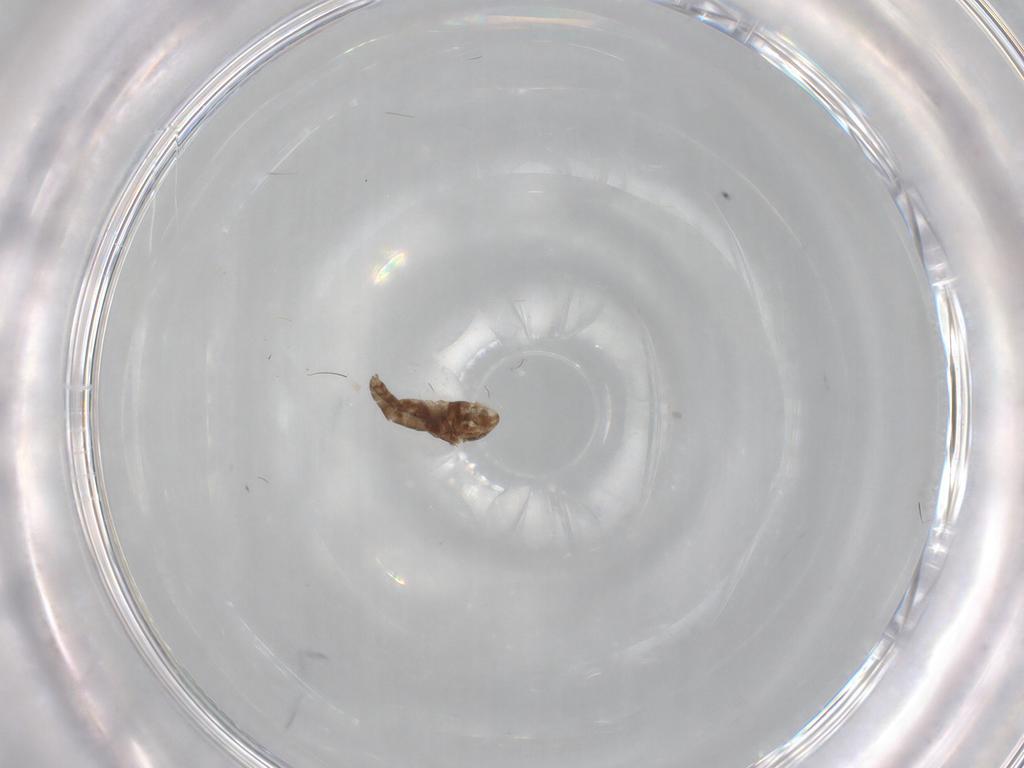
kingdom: Animalia
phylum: Arthropoda
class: Insecta
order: Diptera
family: Chironomidae
